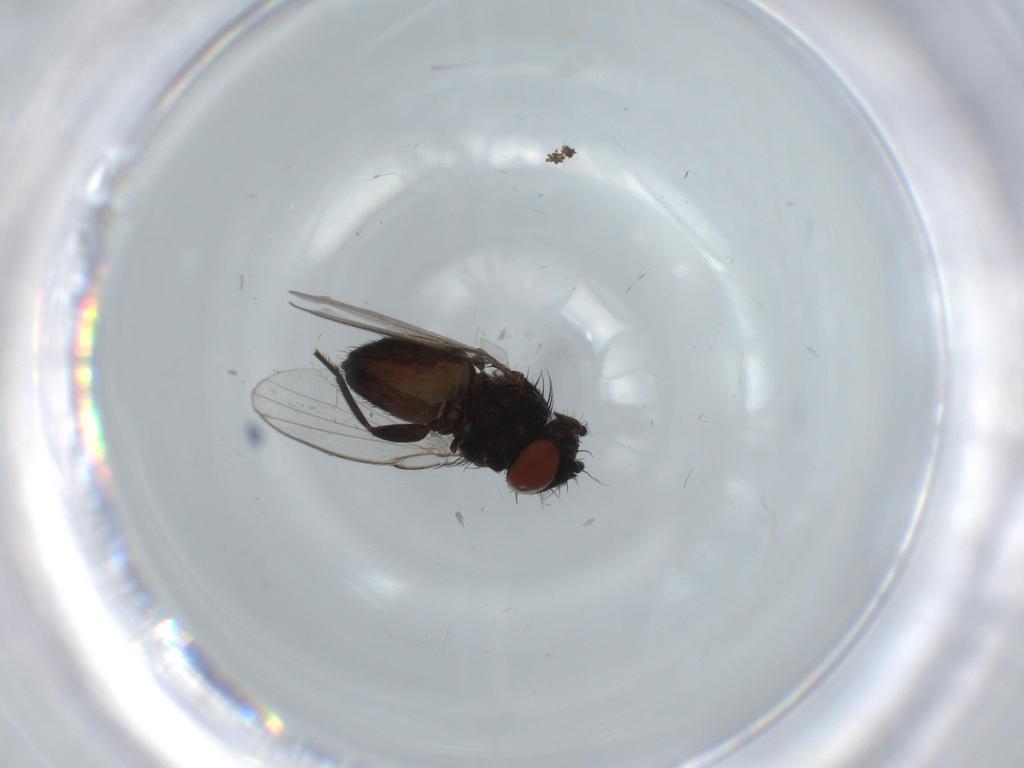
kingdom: Animalia
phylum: Arthropoda
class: Insecta
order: Diptera
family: Milichiidae
